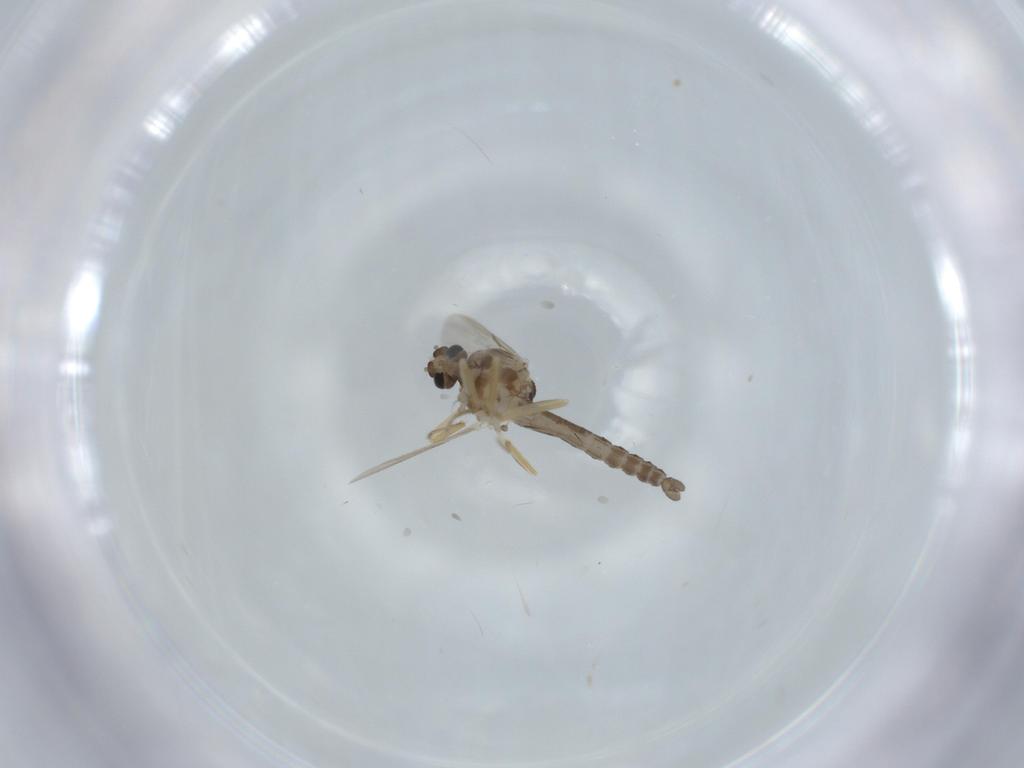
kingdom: Animalia
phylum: Arthropoda
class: Insecta
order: Diptera
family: Ceratopogonidae
